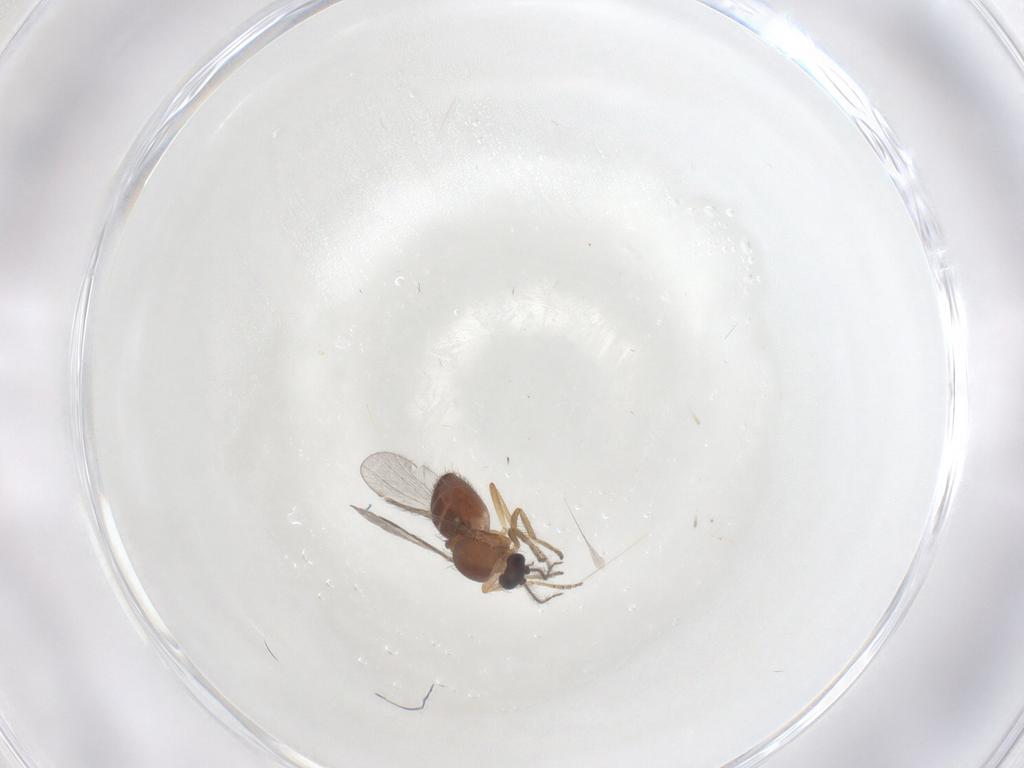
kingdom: Animalia
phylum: Arthropoda
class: Insecta
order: Diptera
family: Ceratopogonidae
